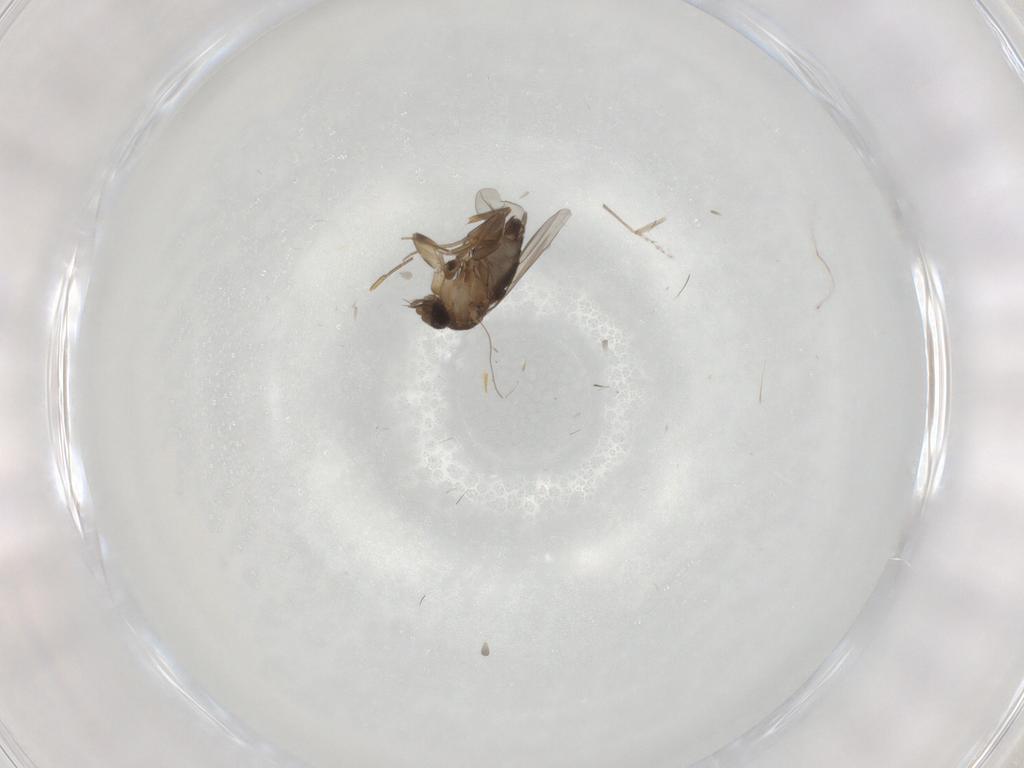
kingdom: Animalia
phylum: Arthropoda
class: Insecta
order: Diptera
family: Phoridae
